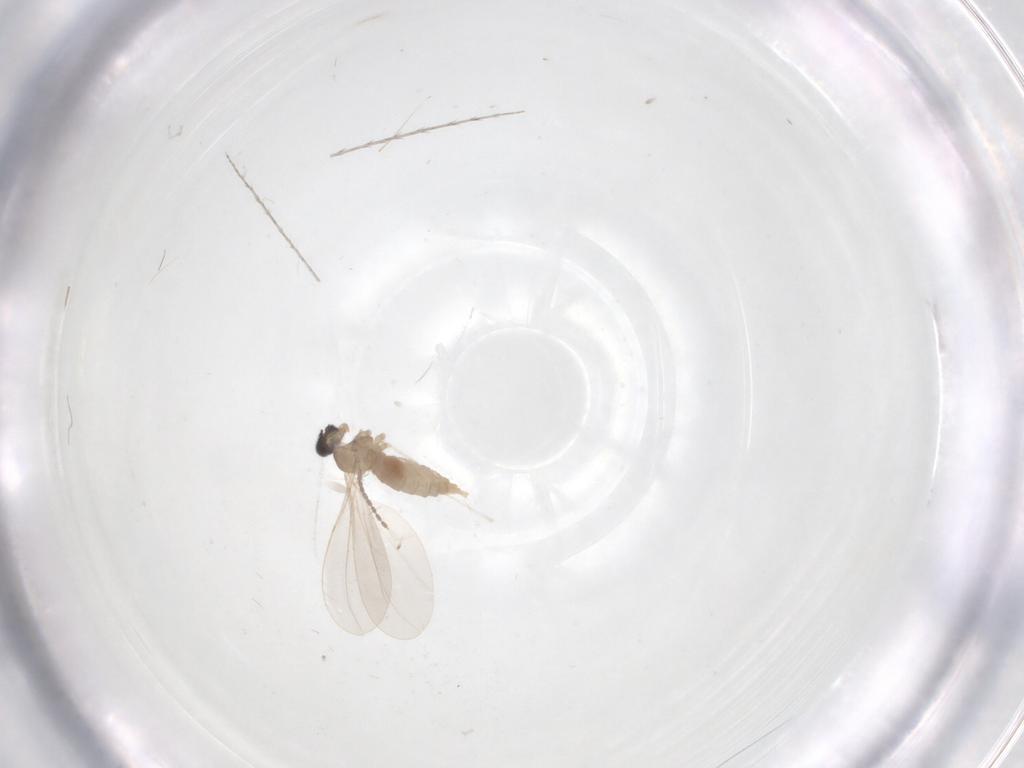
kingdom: Animalia
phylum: Arthropoda
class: Insecta
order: Diptera
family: Cecidomyiidae
